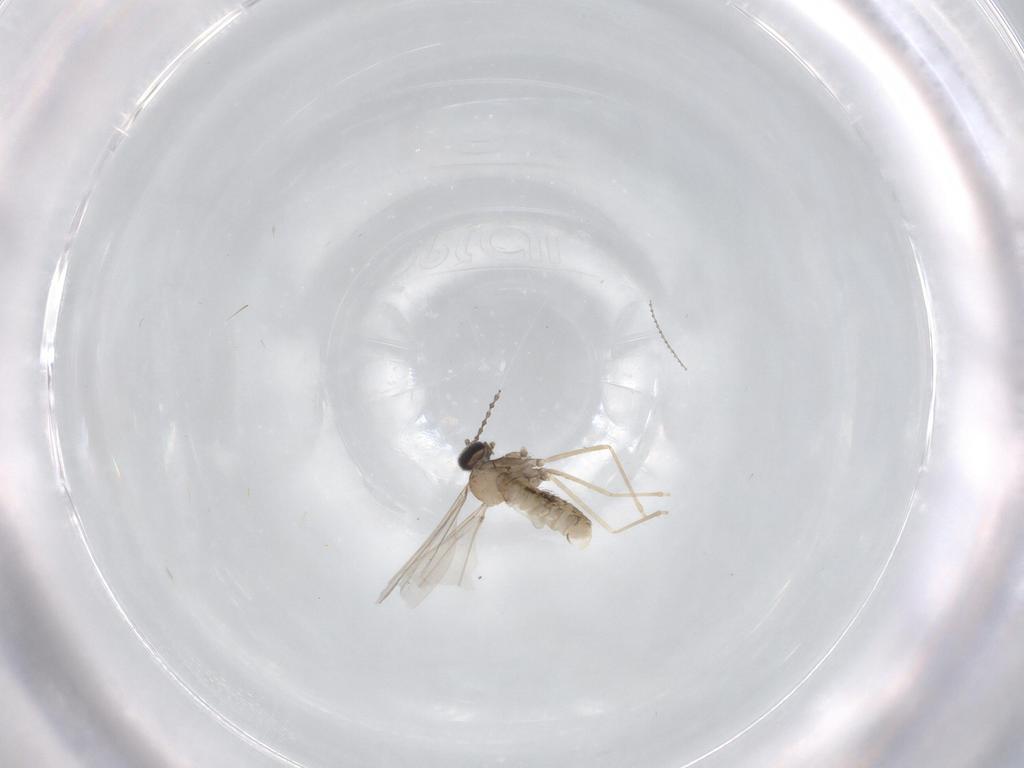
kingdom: Animalia
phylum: Arthropoda
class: Insecta
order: Diptera
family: Cecidomyiidae
